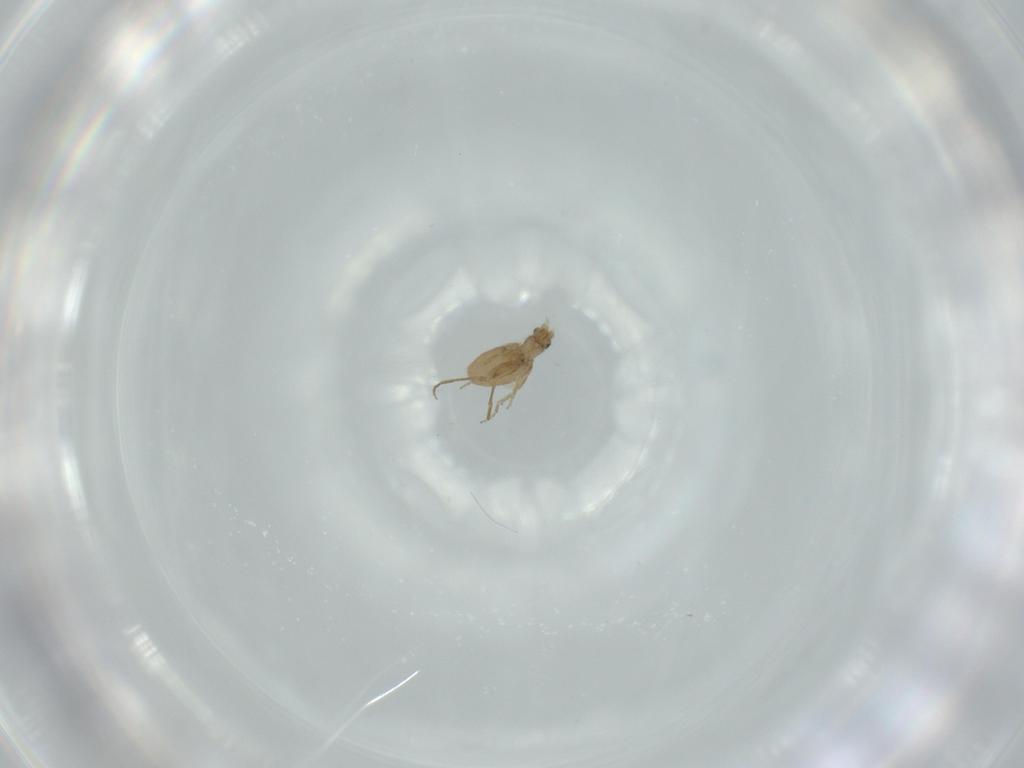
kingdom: Animalia
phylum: Arthropoda
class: Insecta
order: Diptera
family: Phoridae
